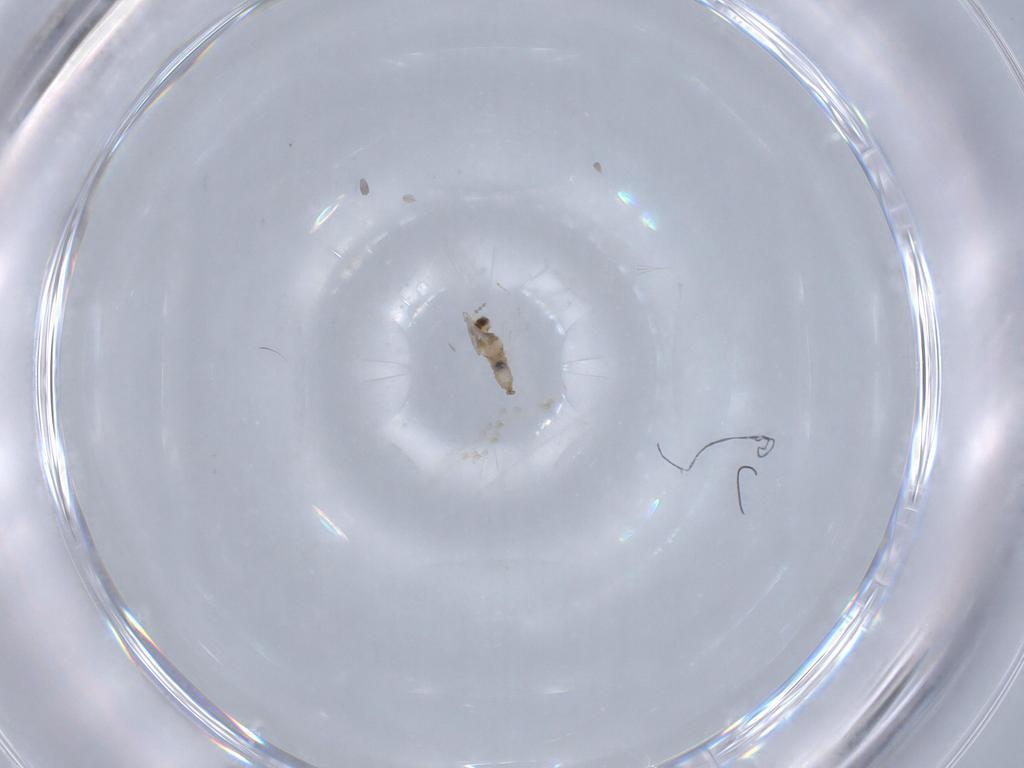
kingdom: Animalia
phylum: Arthropoda
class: Insecta
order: Diptera
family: Cecidomyiidae
